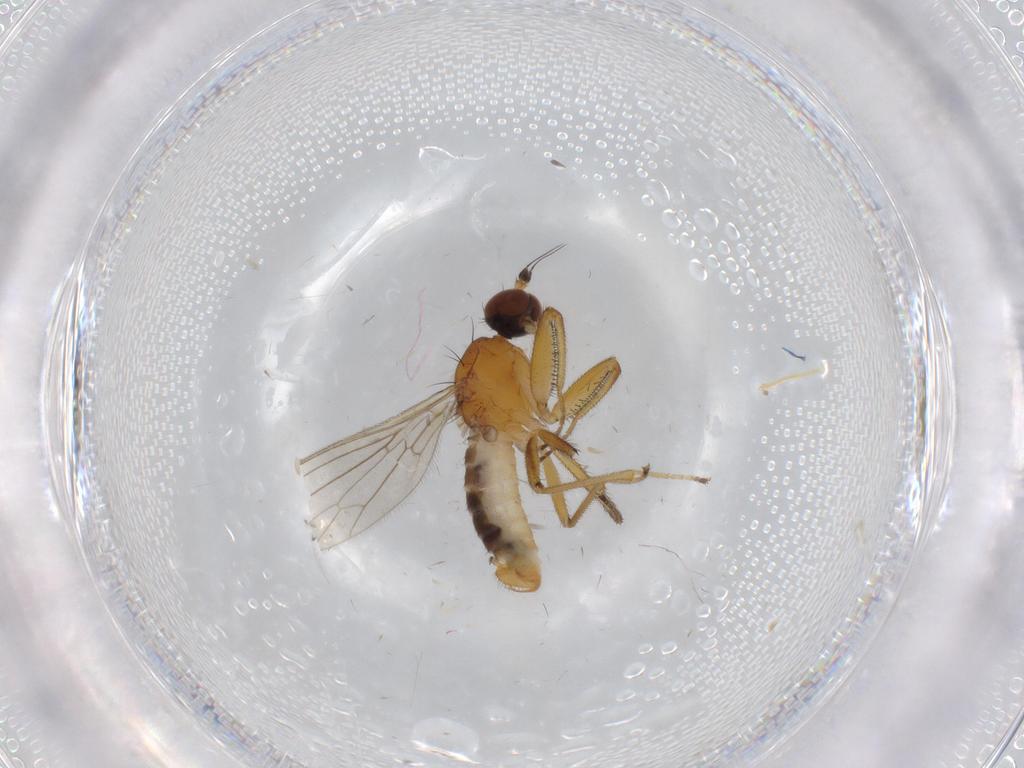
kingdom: Animalia
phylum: Arthropoda
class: Insecta
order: Diptera
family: Empididae
